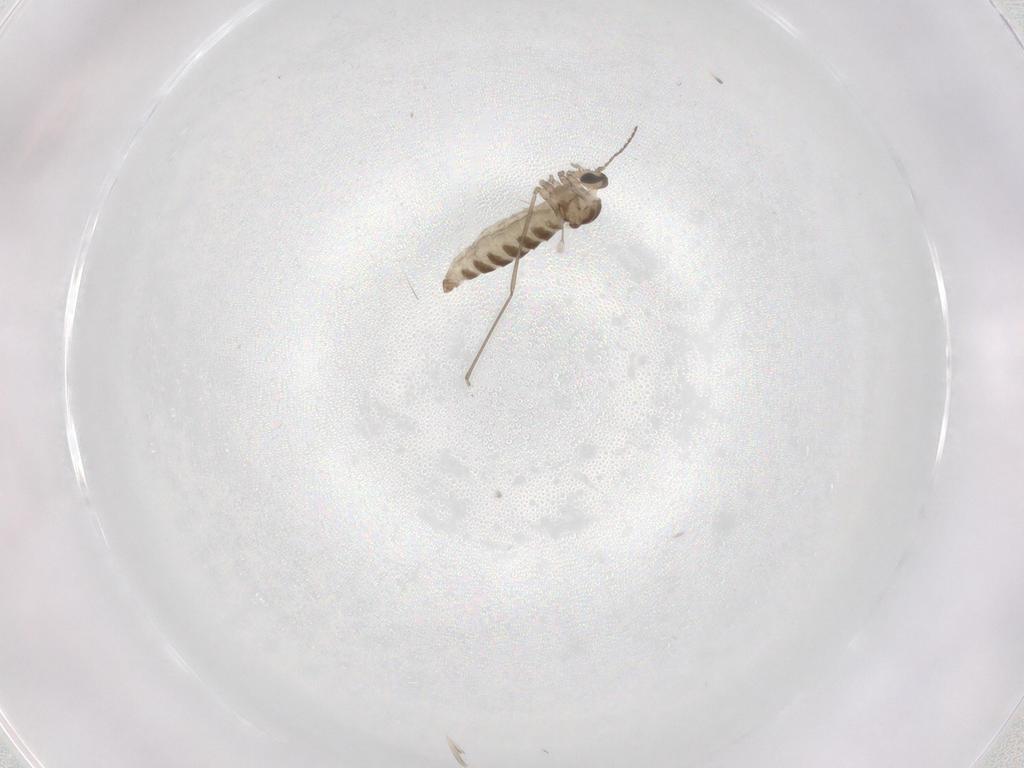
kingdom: Animalia
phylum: Arthropoda
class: Insecta
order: Diptera
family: Cecidomyiidae
